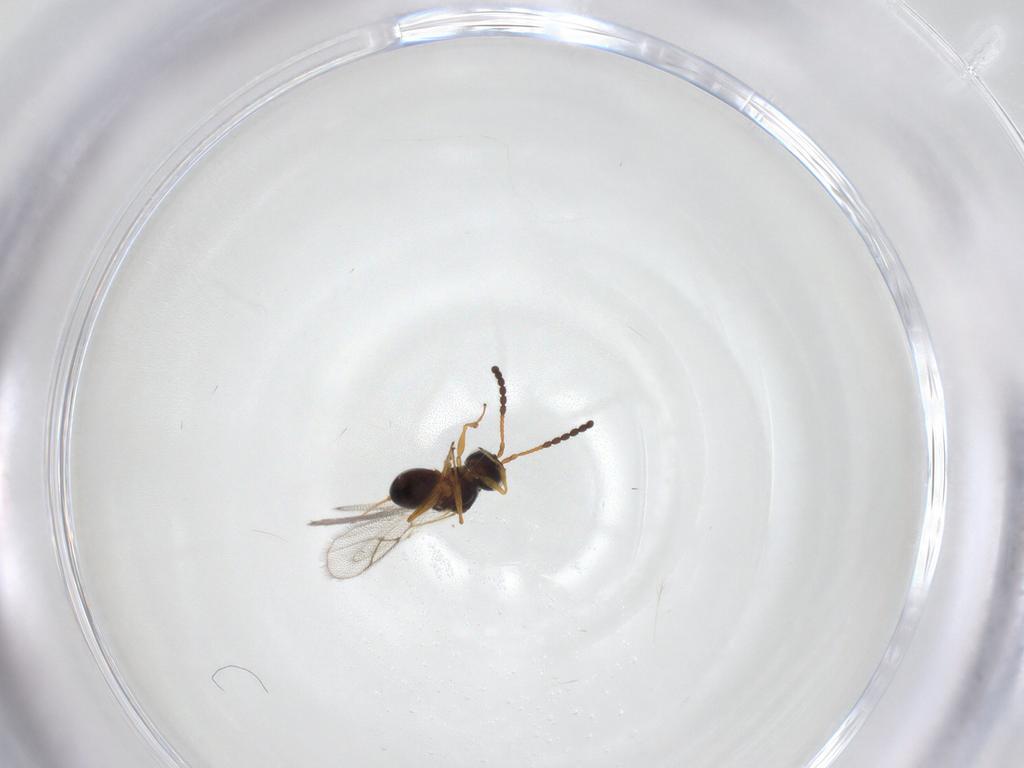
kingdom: Animalia
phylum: Arthropoda
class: Insecta
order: Hymenoptera
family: Figitidae
